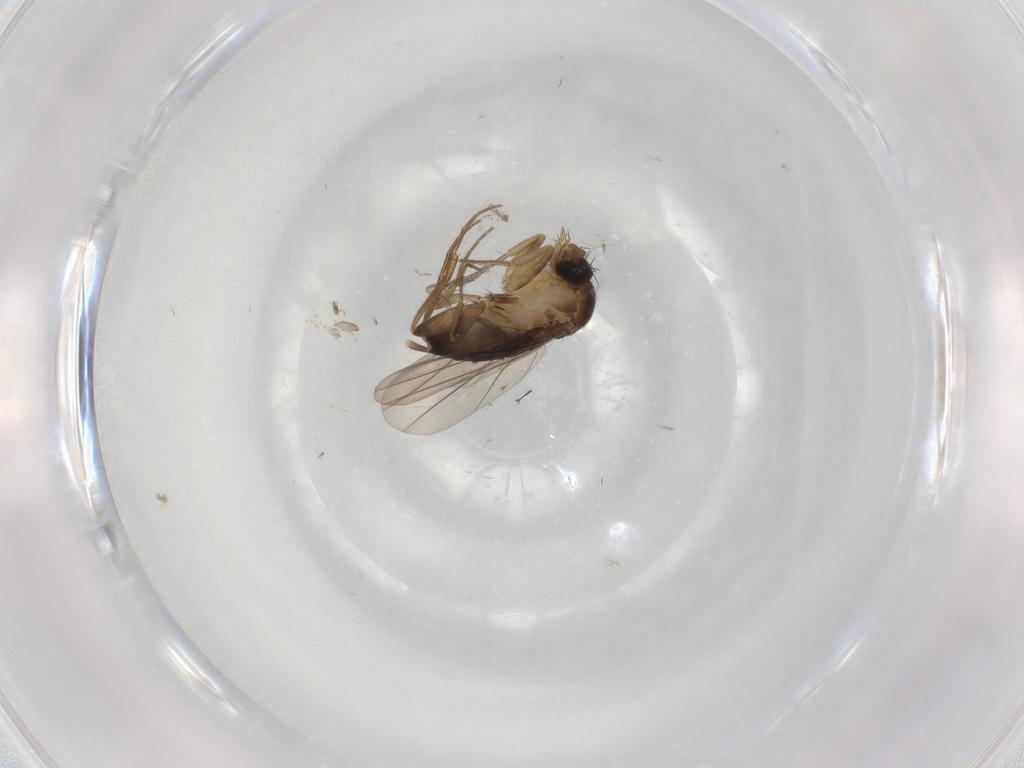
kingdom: Animalia
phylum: Arthropoda
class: Insecta
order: Diptera
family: Phoridae
